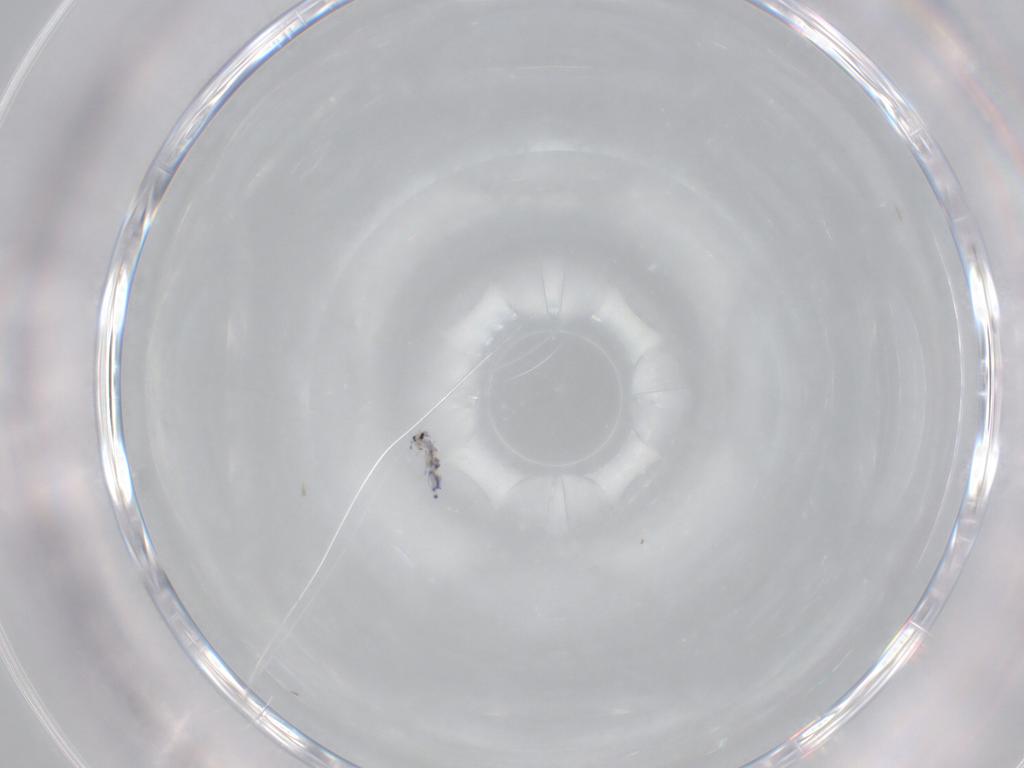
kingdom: Animalia
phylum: Arthropoda
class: Collembola
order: Entomobryomorpha
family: Entomobryidae
